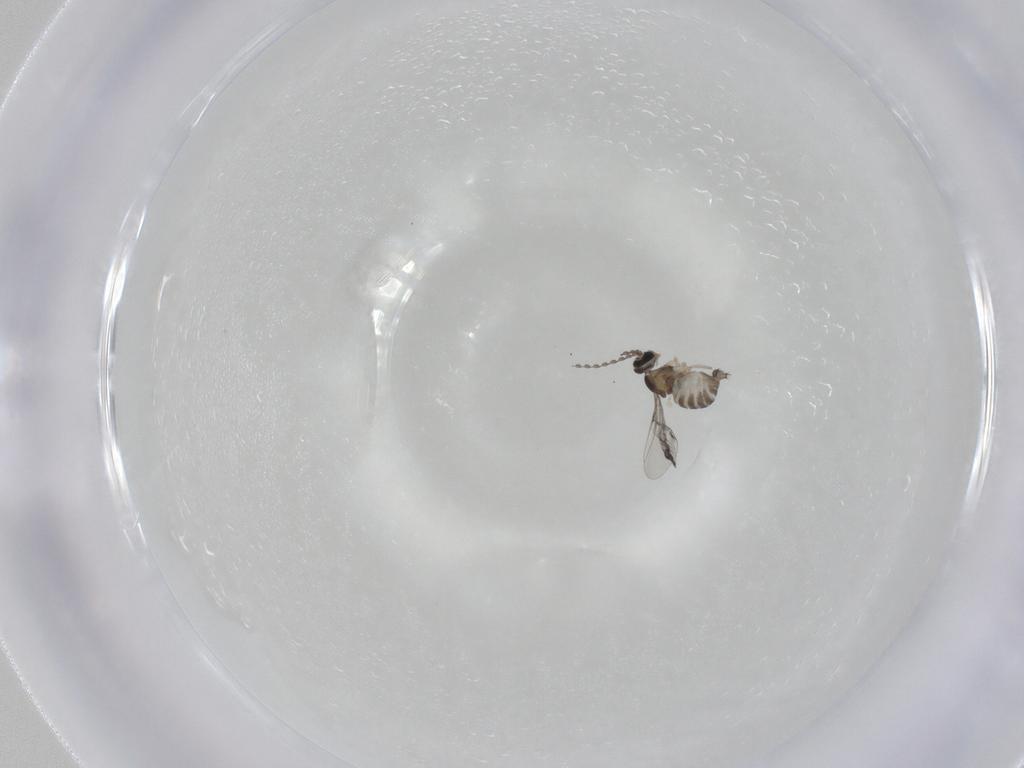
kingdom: Animalia
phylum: Arthropoda
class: Insecta
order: Diptera
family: Cecidomyiidae
